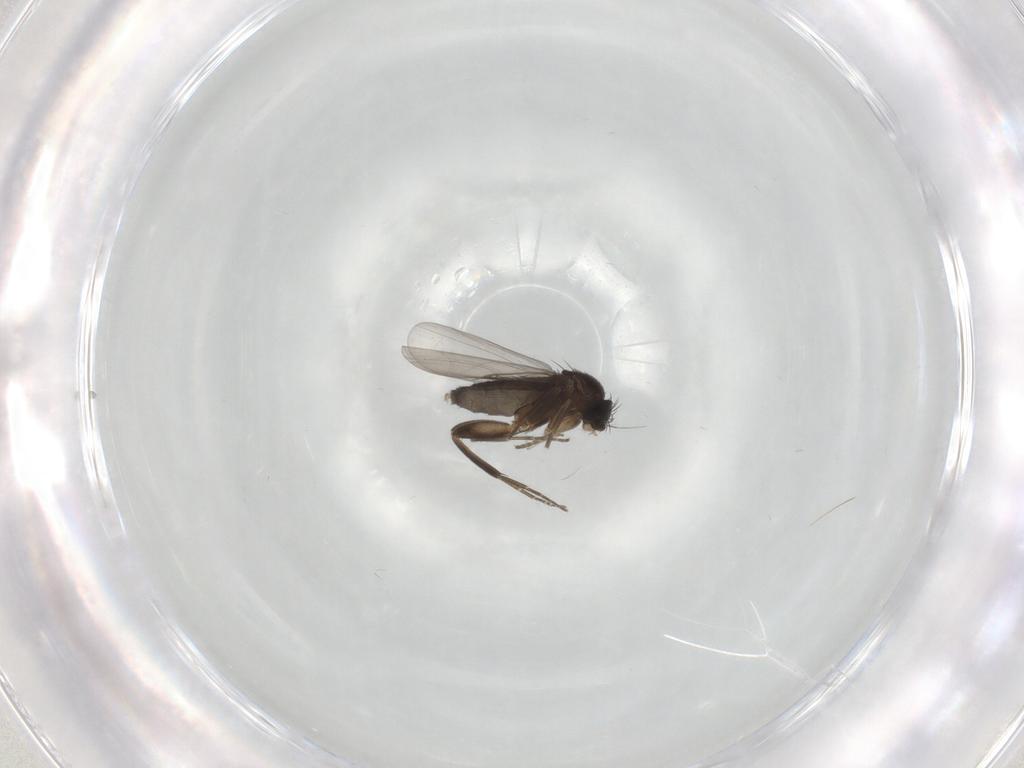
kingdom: Animalia
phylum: Arthropoda
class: Insecta
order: Diptera
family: Phoridae
